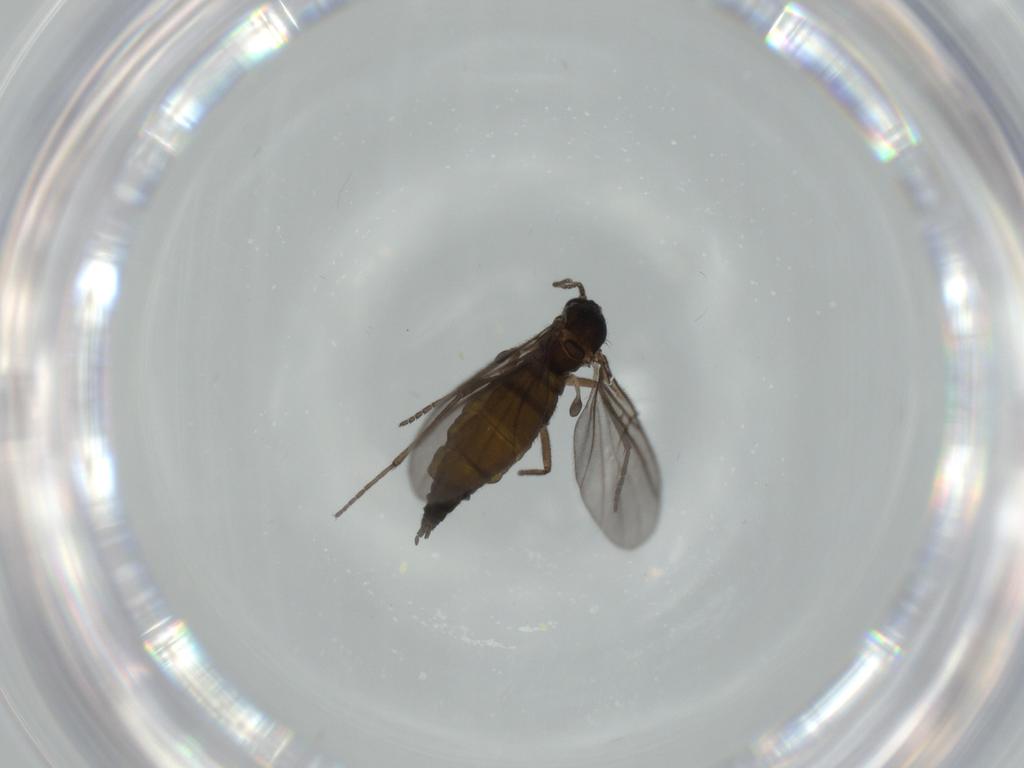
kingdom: Animalia
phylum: Arthropoda
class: Insecta
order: Diptera
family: Sciaridae
